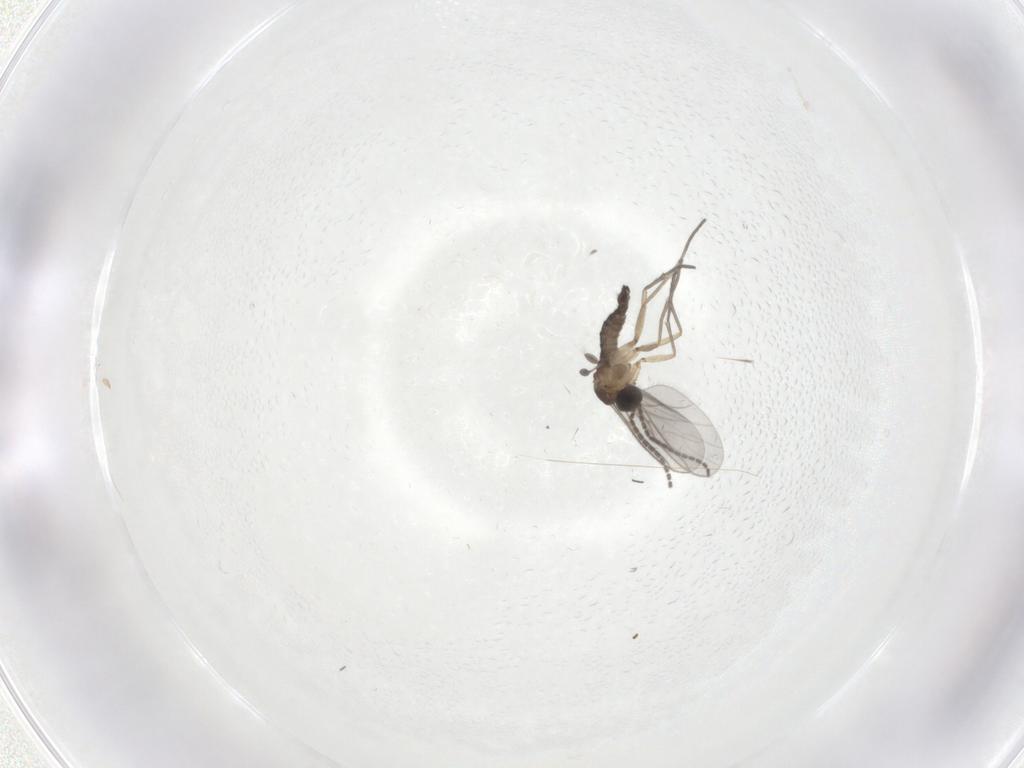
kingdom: Animalia
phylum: Arthropoda
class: Insecta
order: Diptera
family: Sciaridae
